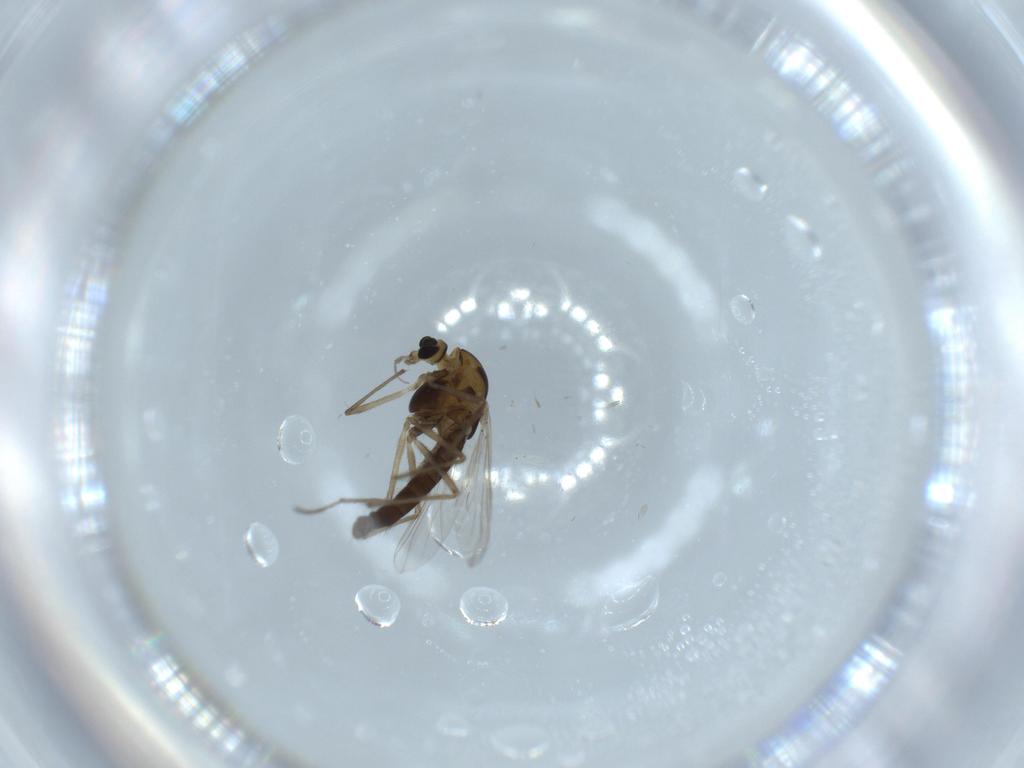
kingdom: Animalia
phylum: Arthropoda
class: Insecta
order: Diptera
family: Chironomidae
